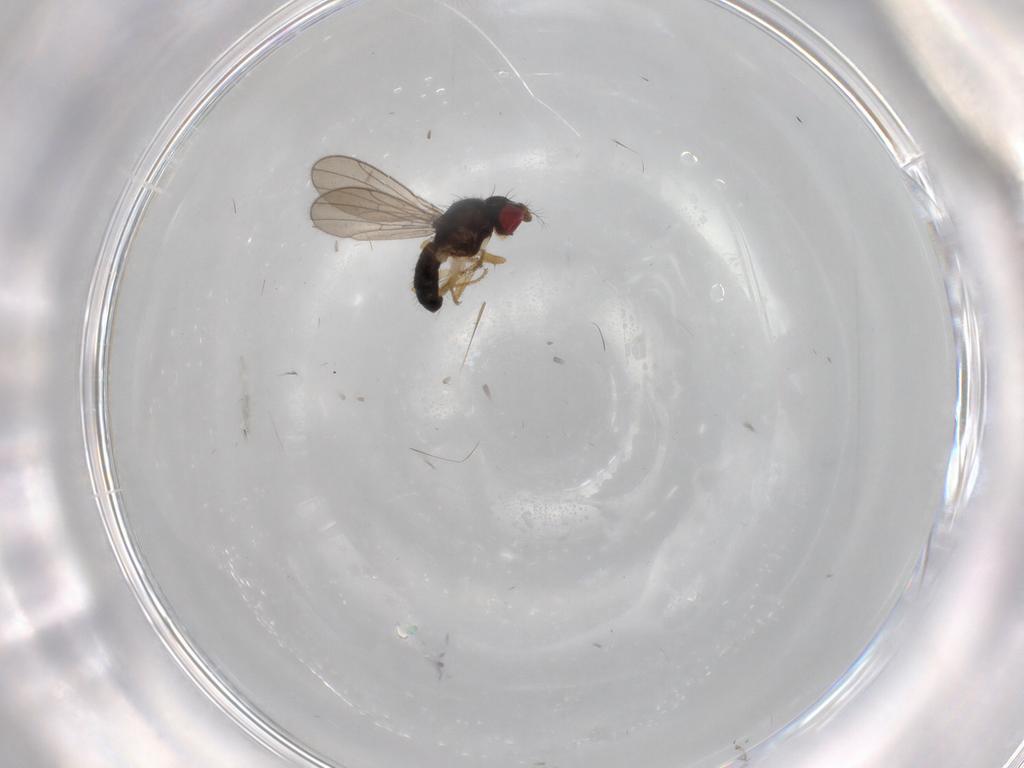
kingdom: Animalia
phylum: Arthropoda
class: Insecta
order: Diptera
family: Drosophilidae
